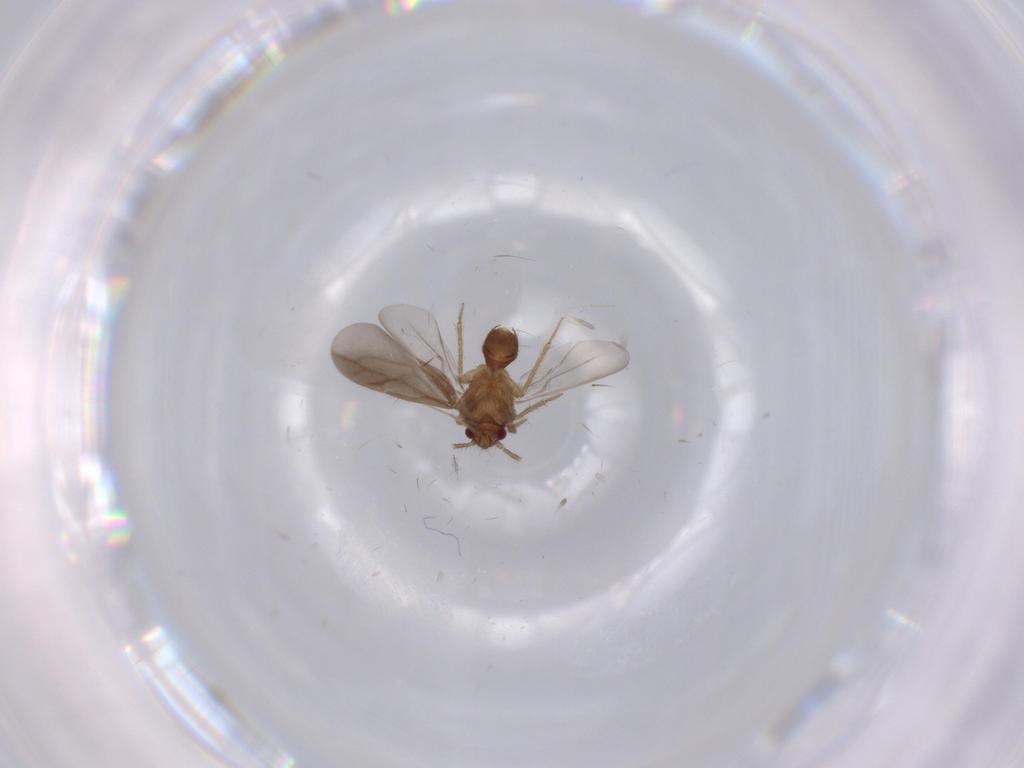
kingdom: Animalia
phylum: Arthropoda
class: Insecta
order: Hemiptera
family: Ceratocombidae
